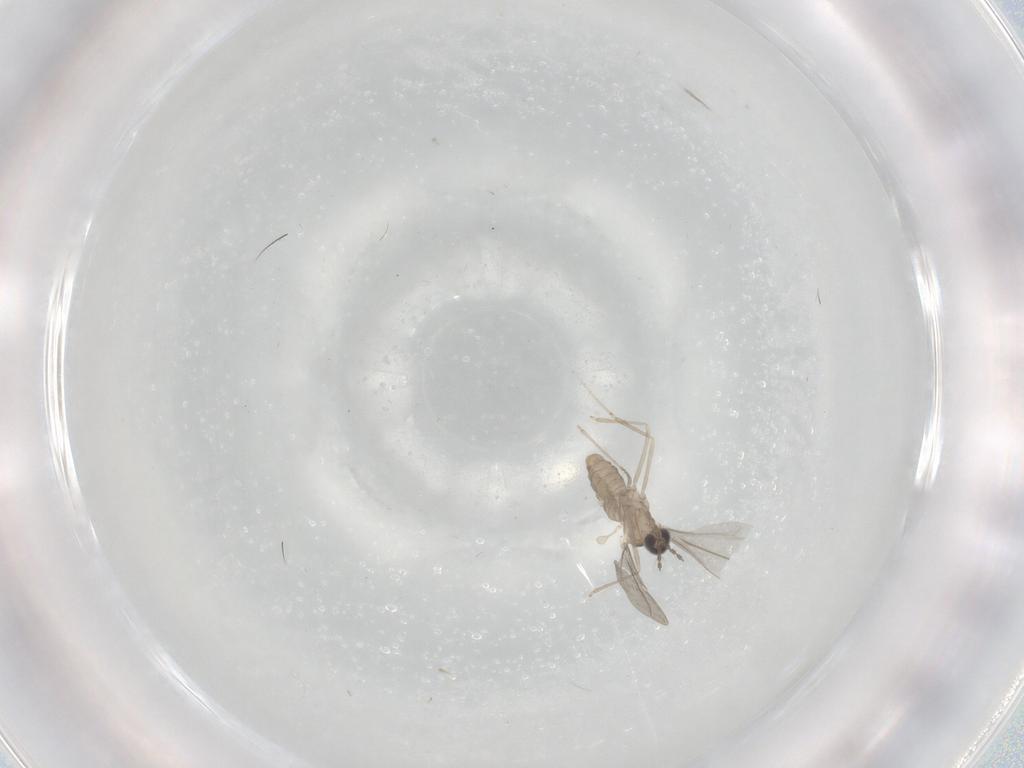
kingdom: Animalia
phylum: Arthropoda
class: Insecta
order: Diptera
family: Cecidomyiidae
